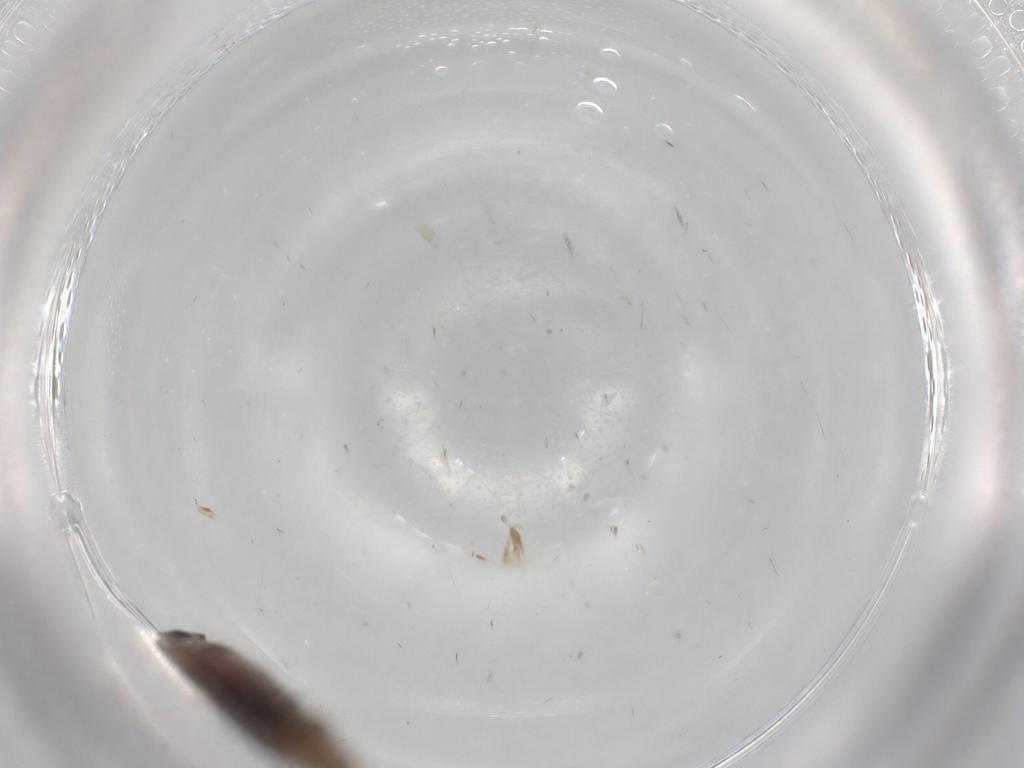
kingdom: Animalia
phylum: Arthropoda
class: Insecta
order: Lepidoptera
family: Cosmopterigidae
